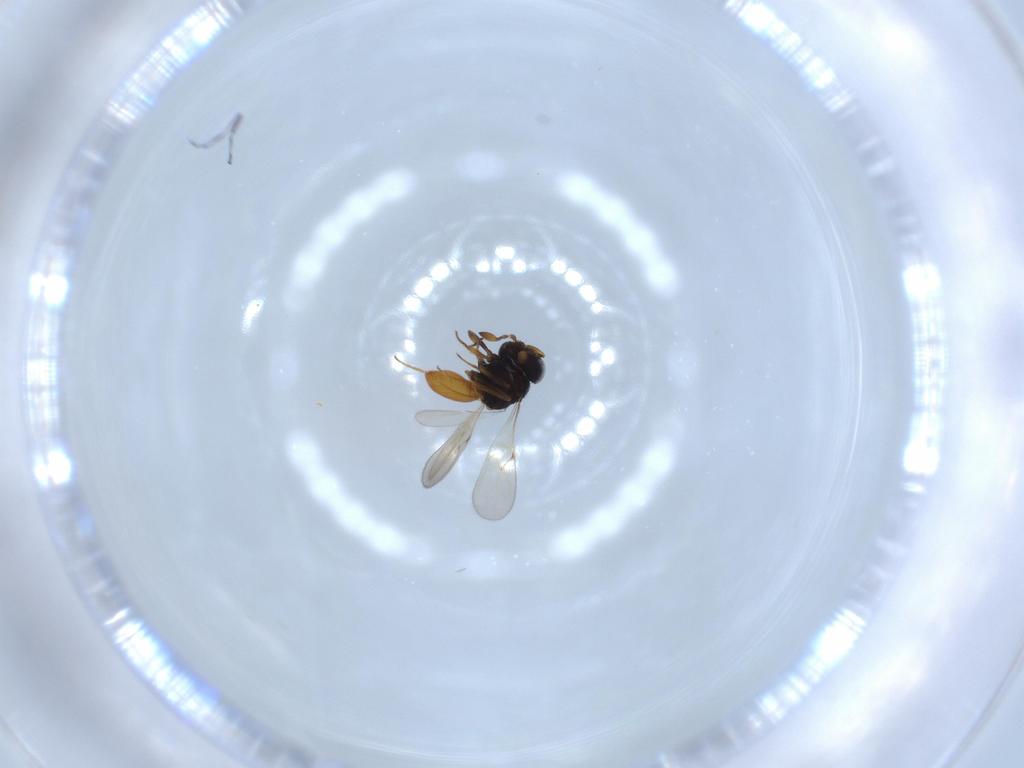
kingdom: Animalia
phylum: Arthropoda
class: Insecta
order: Hymenoptera
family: Scelionidae
